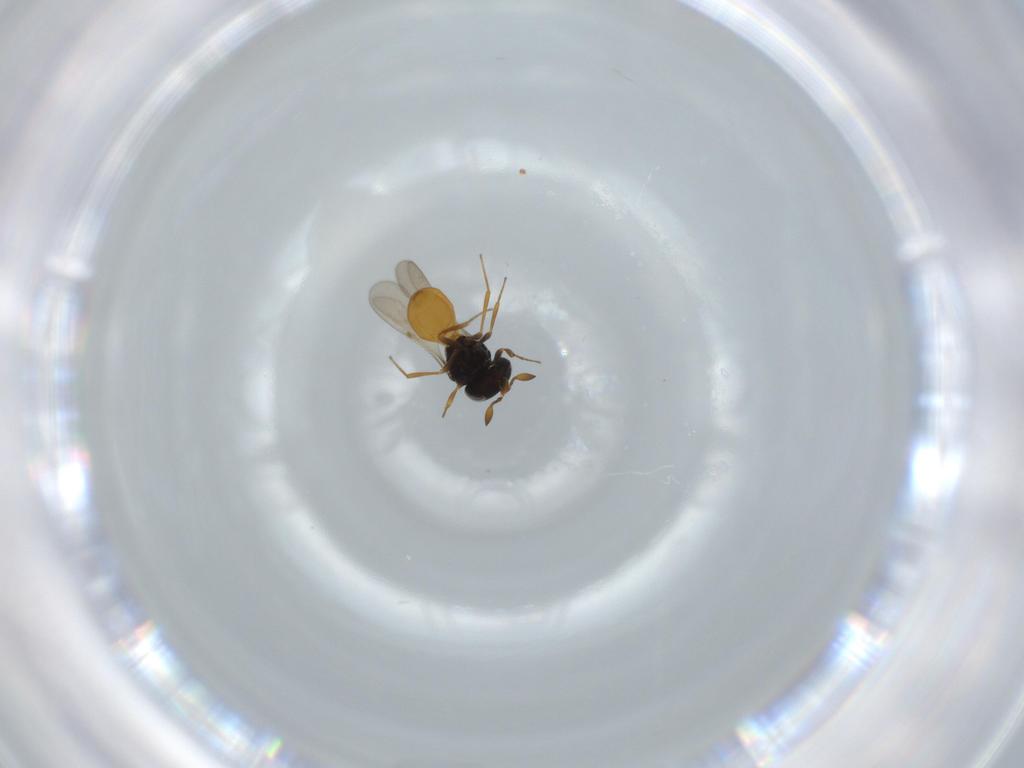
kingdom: Animalia
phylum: Arthropoda
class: Insecta
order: Hymenoptera
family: Scelionidae
